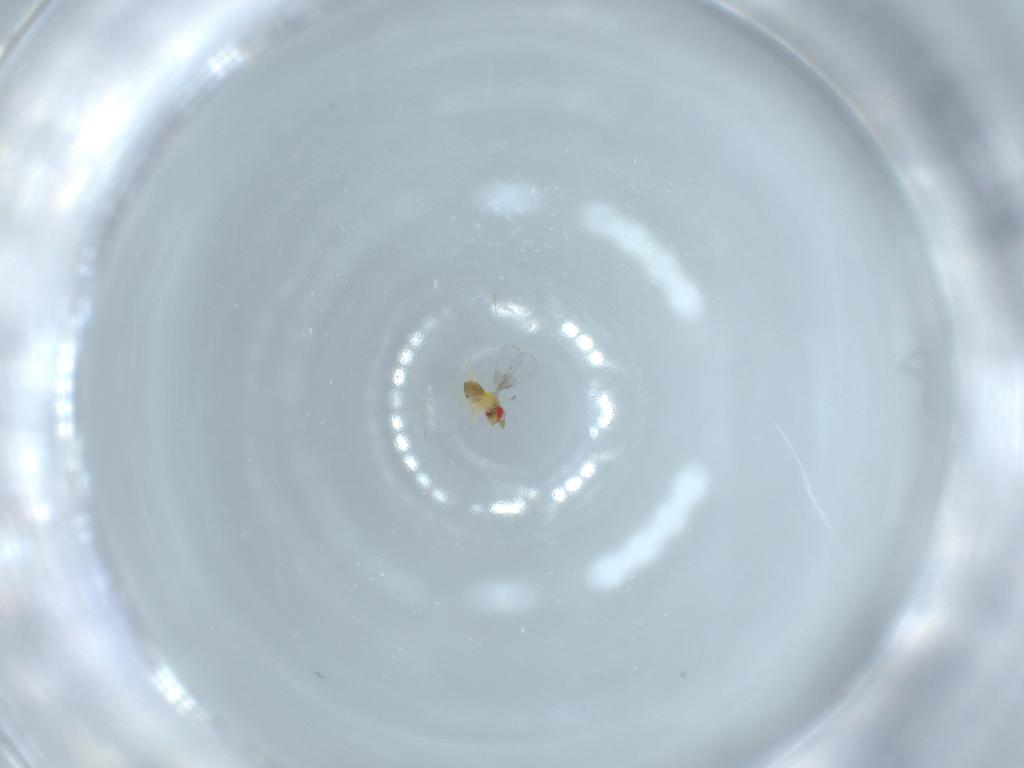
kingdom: Animalia
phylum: Arthropoda
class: Insecta
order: Hymenoptera
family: Trichogrammatidae
